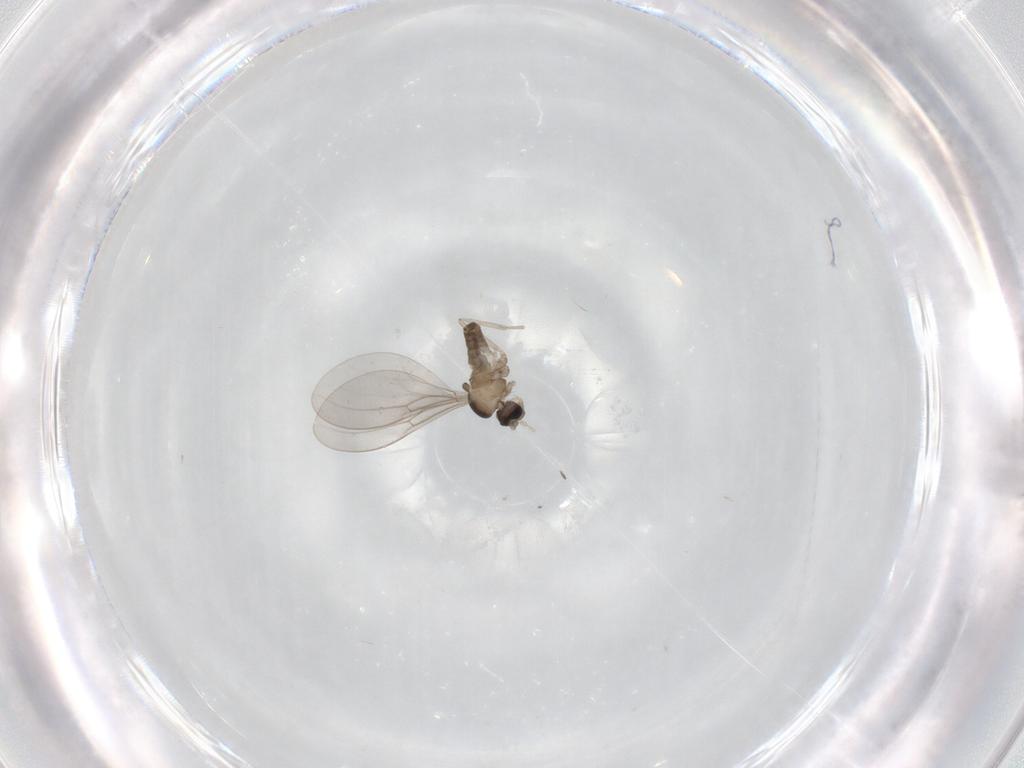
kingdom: Animalia
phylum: Arthropoda
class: Insecta
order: Diptera
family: Cecidomyiidae
